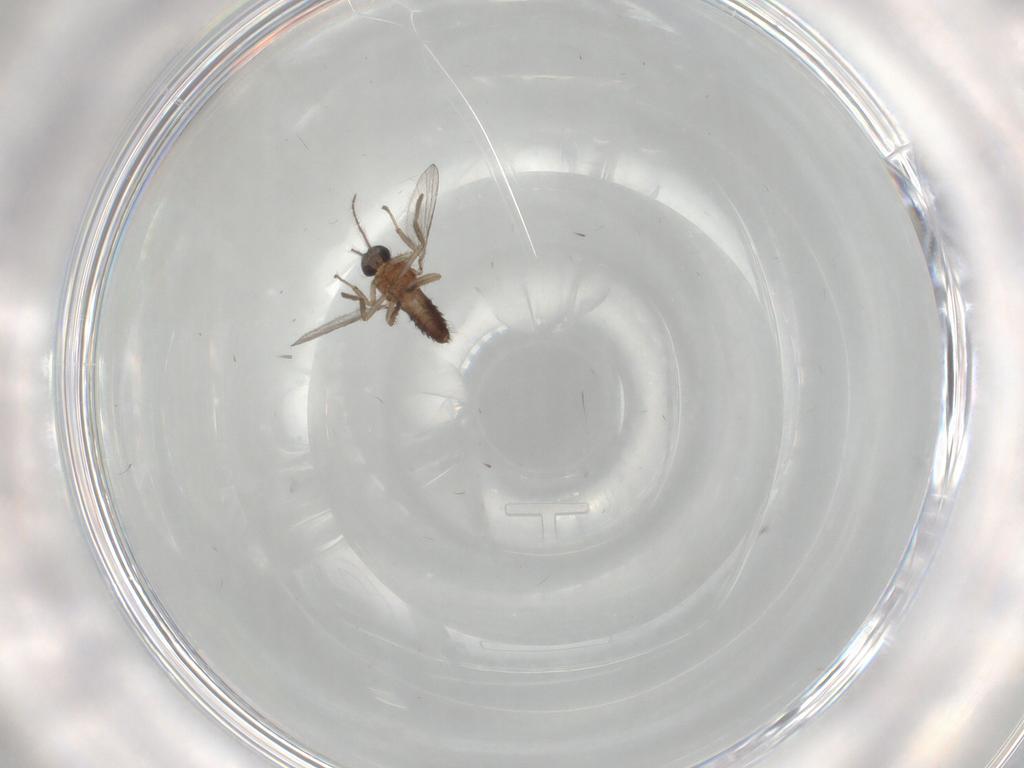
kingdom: Animalia
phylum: Arthropoda
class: Insecta
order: Diptera
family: Ceratopogonidae
